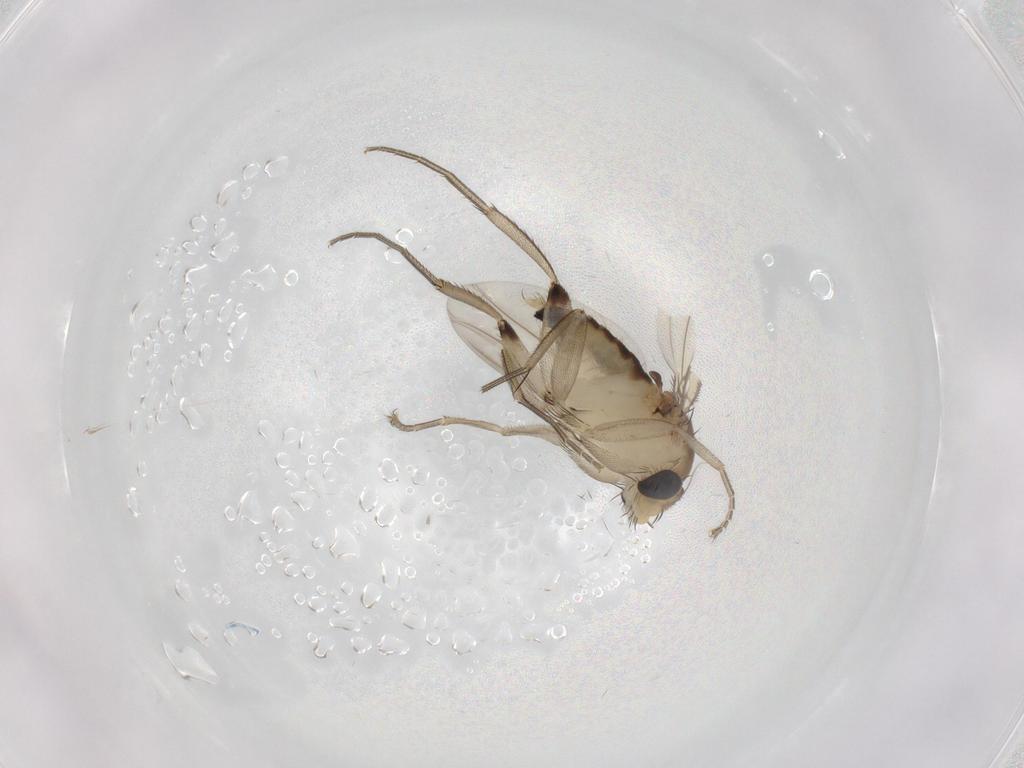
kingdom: Animalia
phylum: Arthropoda
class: Insecta
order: Diptera
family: Phoridae
